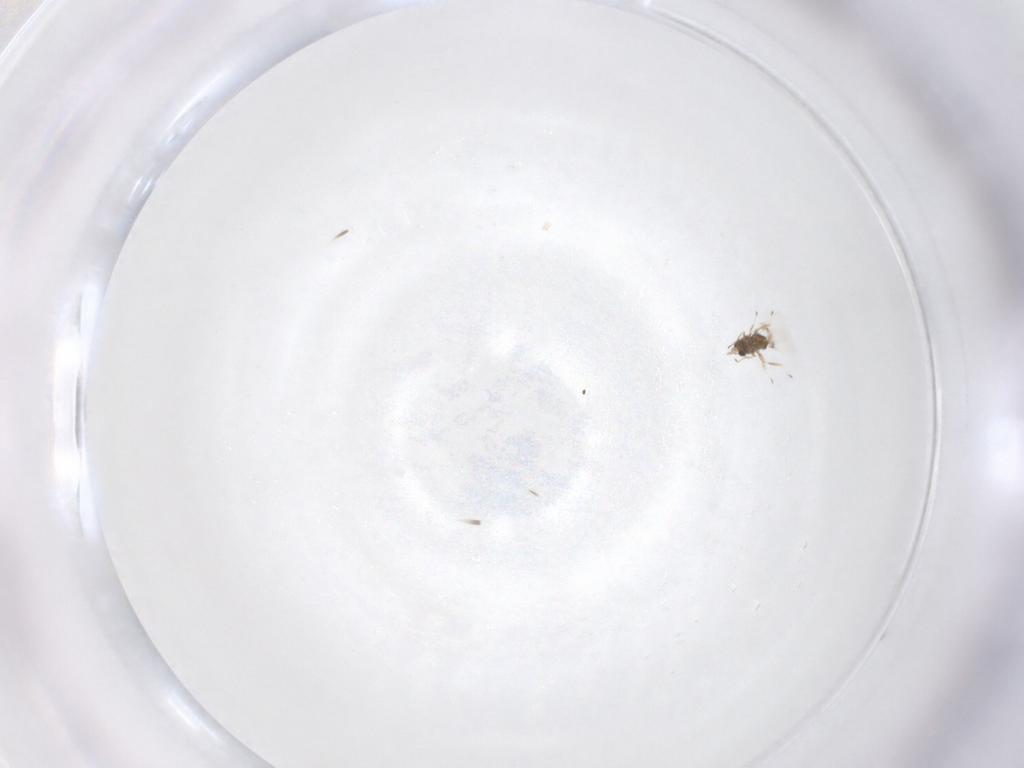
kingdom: Animalia
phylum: Arthropoda
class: Insecta
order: Hymenoptera
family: Trichogrammatidae
